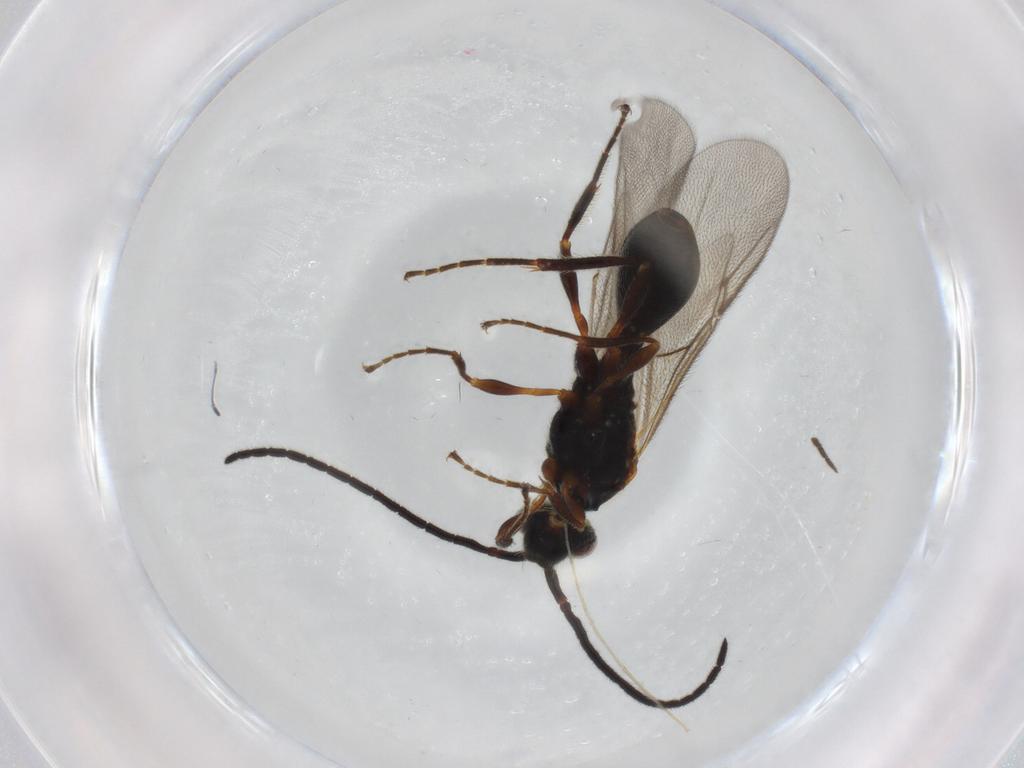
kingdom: Animalia
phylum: Arthropoda
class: Insecta
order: Hymenoptera
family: Diapriidae
